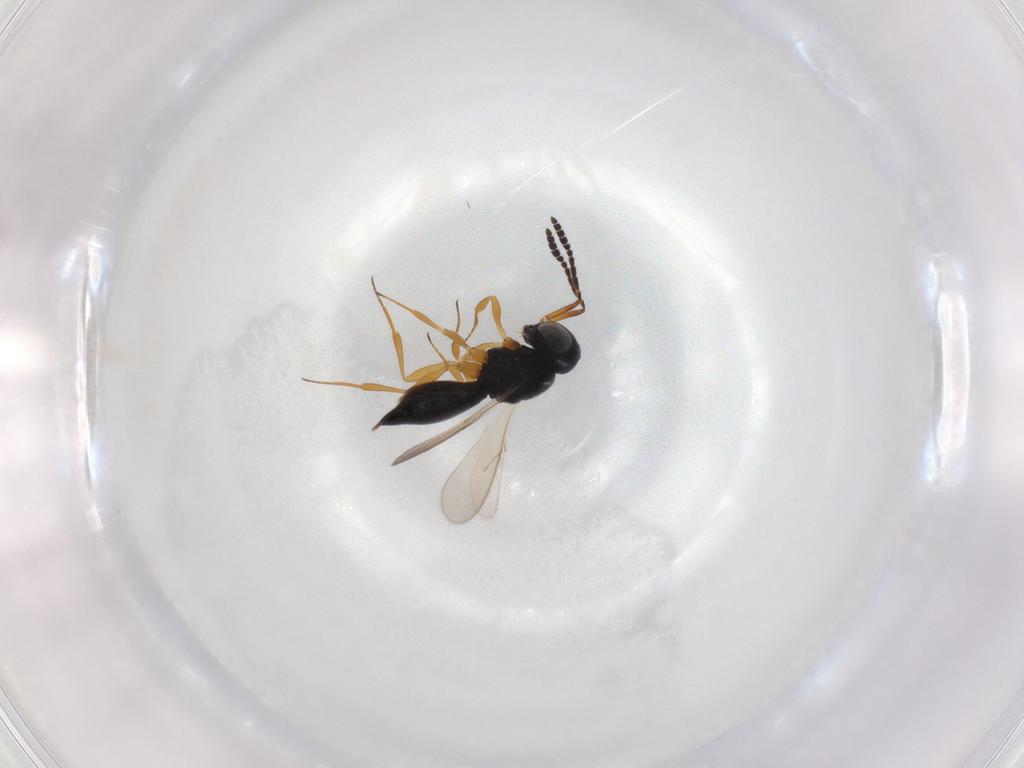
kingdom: Animalia
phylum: Arthropoda
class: Insecta
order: Hymenoptera
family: Scelionidae
